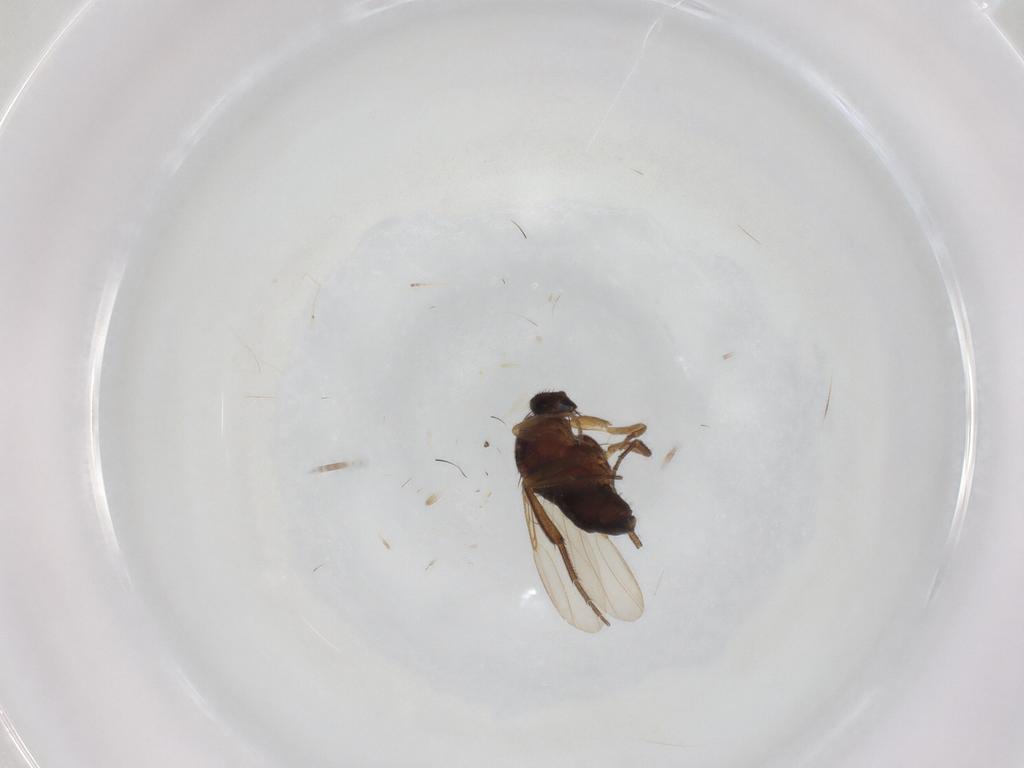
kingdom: Animalia
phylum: Arthropoda
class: Insecta
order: Diptera
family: Phoridae
